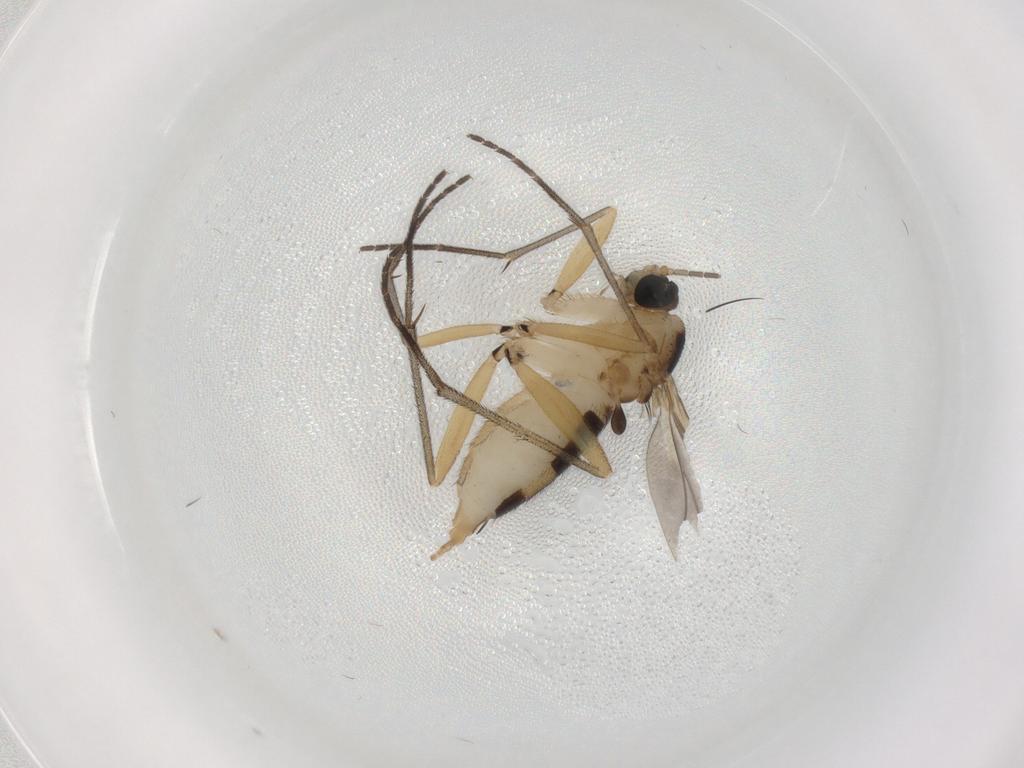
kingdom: Animalia
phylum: Arthropoda
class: Insecta
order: Diptera
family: Sciaridae
